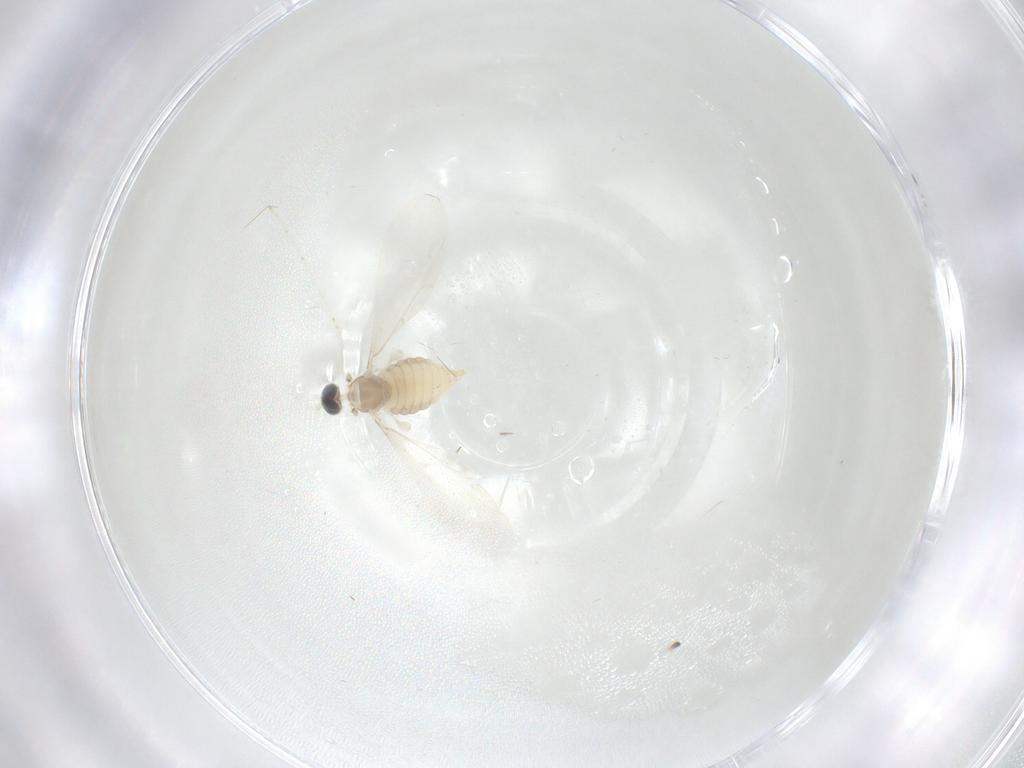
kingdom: Animalia
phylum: Arthropoda
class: Insecta
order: Diptera
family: Cecidomyiidae
